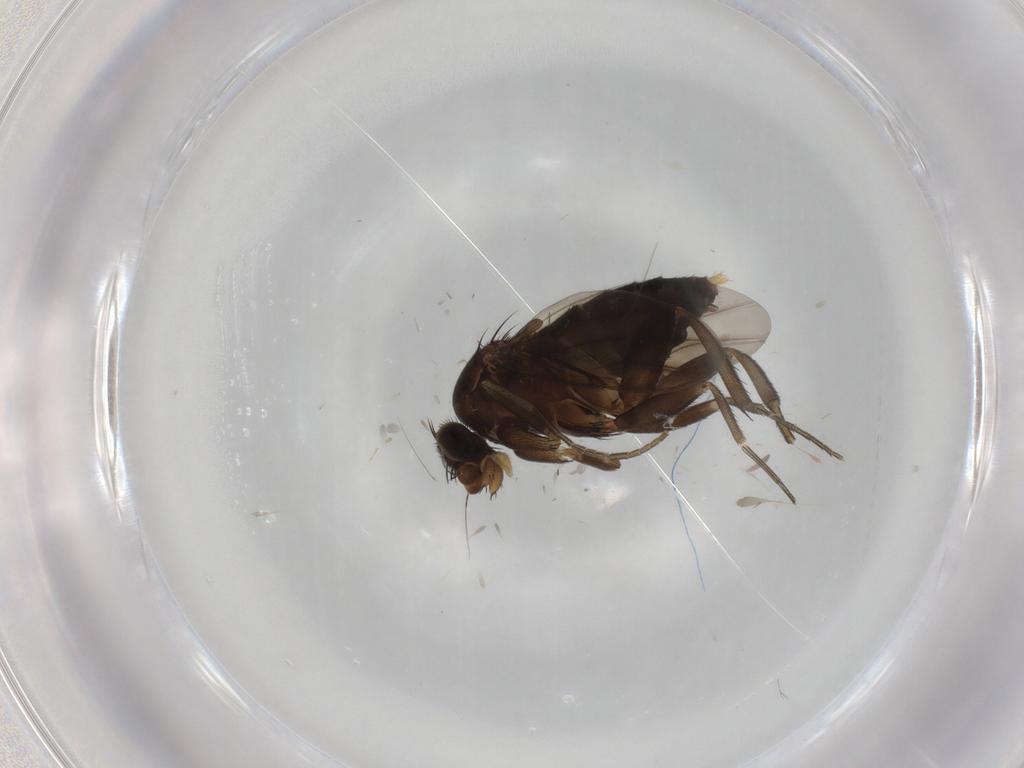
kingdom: Animalia
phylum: Arthropoda
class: Insecta
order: Diptera
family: Phoridae
